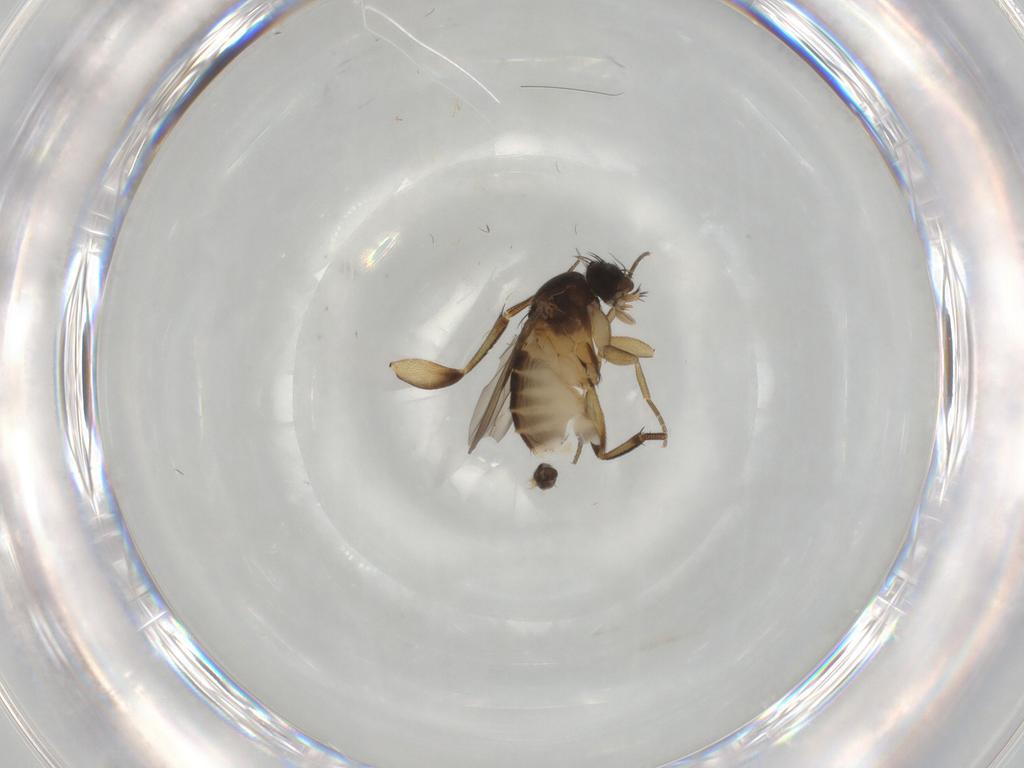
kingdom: Animalia
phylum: Arthropoda
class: Insecta
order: Diptera
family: Phoridae
